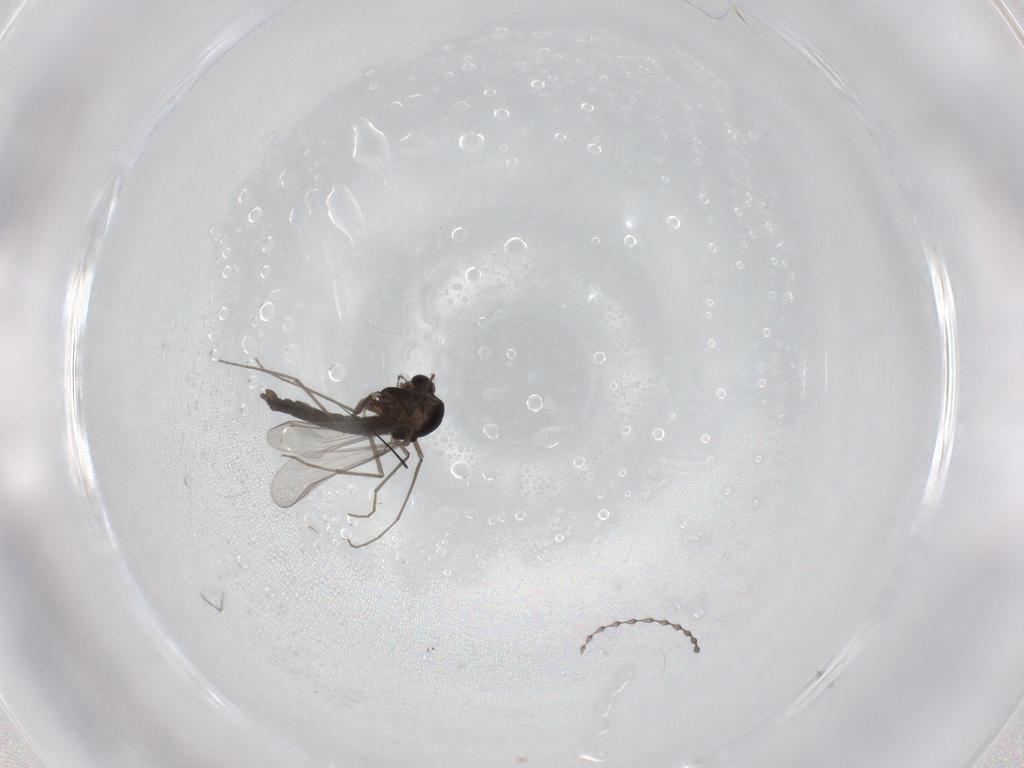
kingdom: Animalia
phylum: Arthropoda
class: Insecta
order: Diptera
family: Chironomidae
